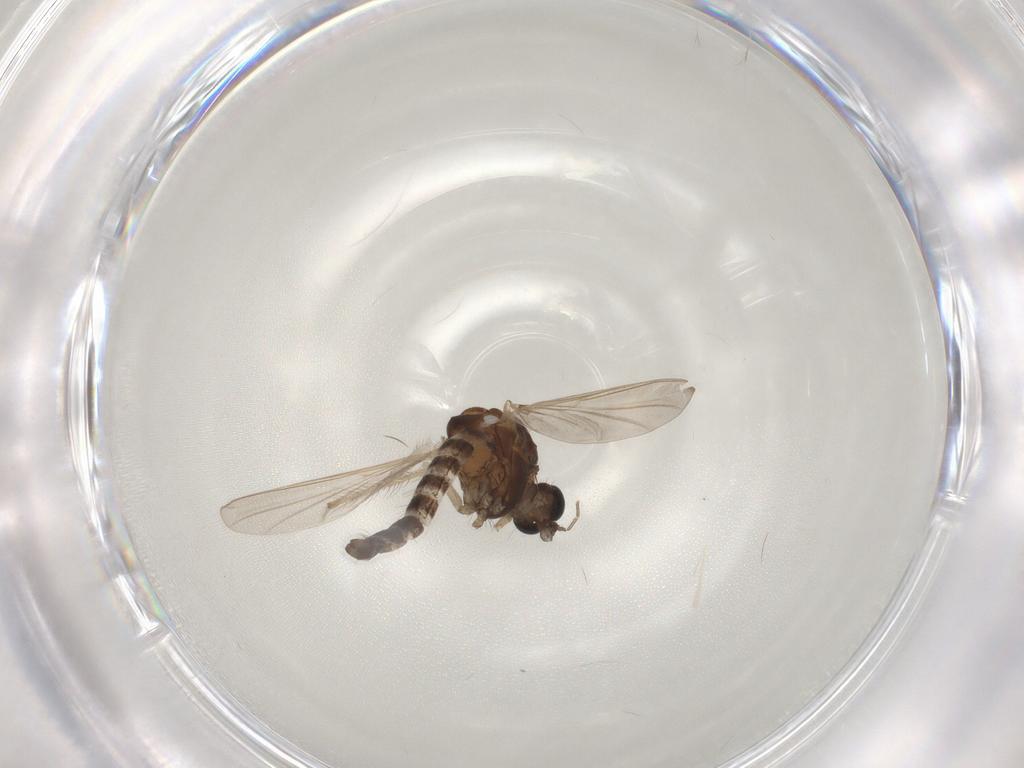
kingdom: Animalia
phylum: Arthropoda
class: Insecta
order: Diptera
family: Chironomidae
